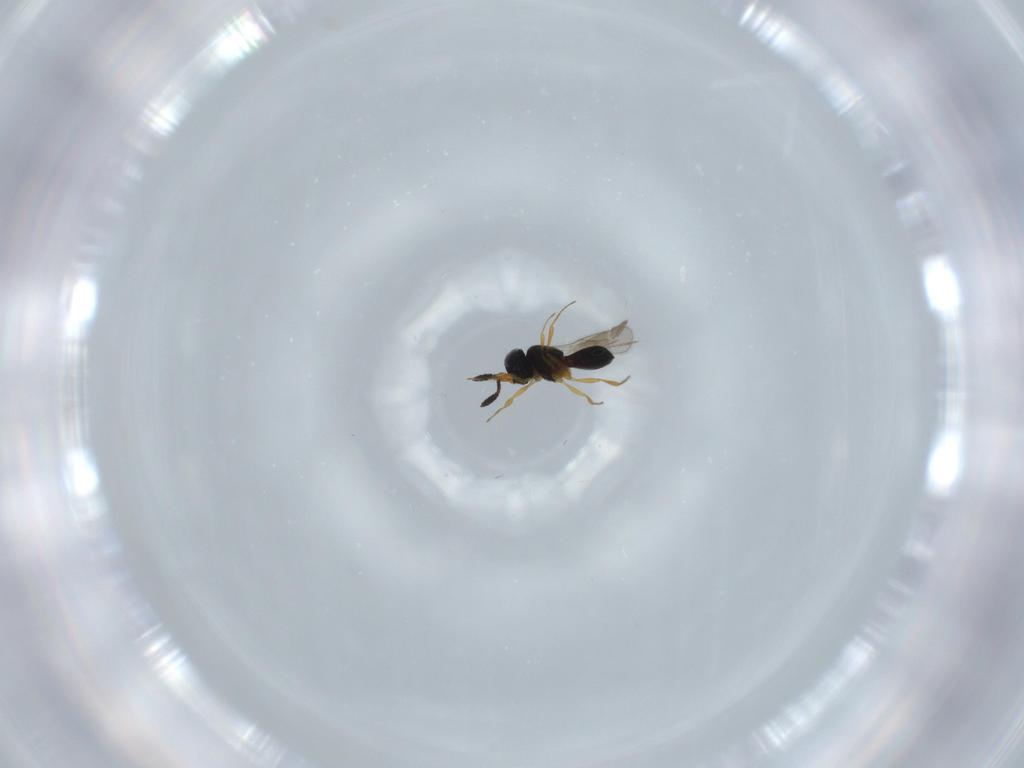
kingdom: Animalia
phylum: Arthropoda
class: Insecta
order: Hymenoptera
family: Scelionidae
